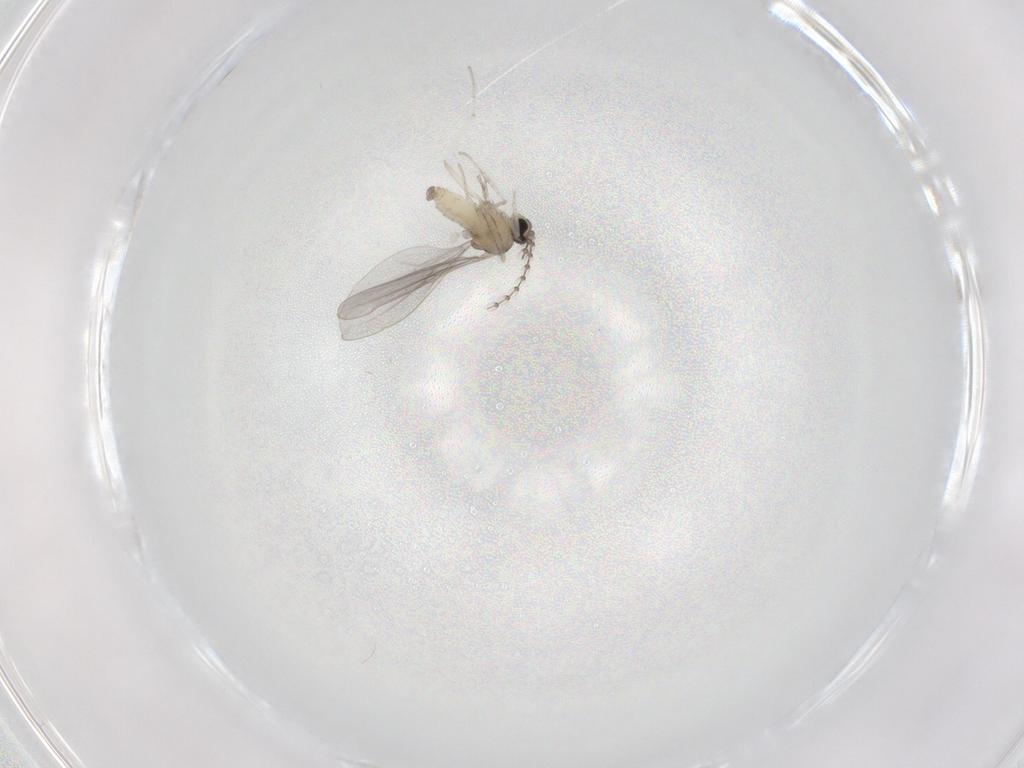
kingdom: Animalia
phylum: Arthropoda
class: Insecta
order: Diptera
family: Cecidomyiidae
